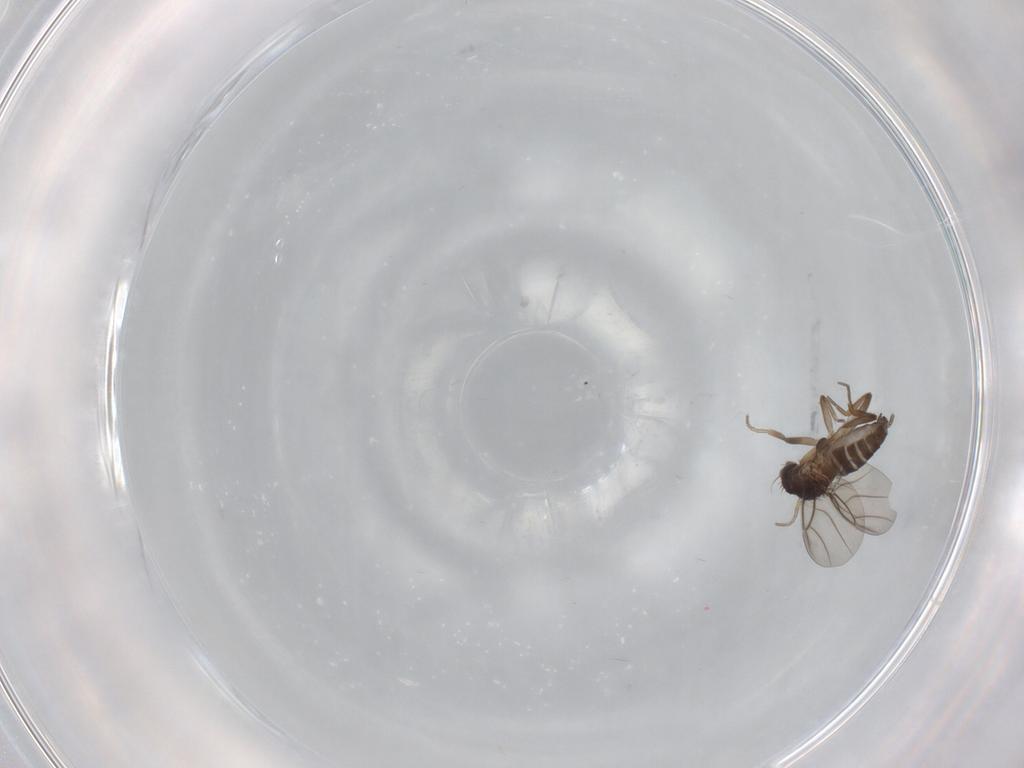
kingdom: Animalia
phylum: Arthropoda
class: Insecta
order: Diptera
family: Phoridae
